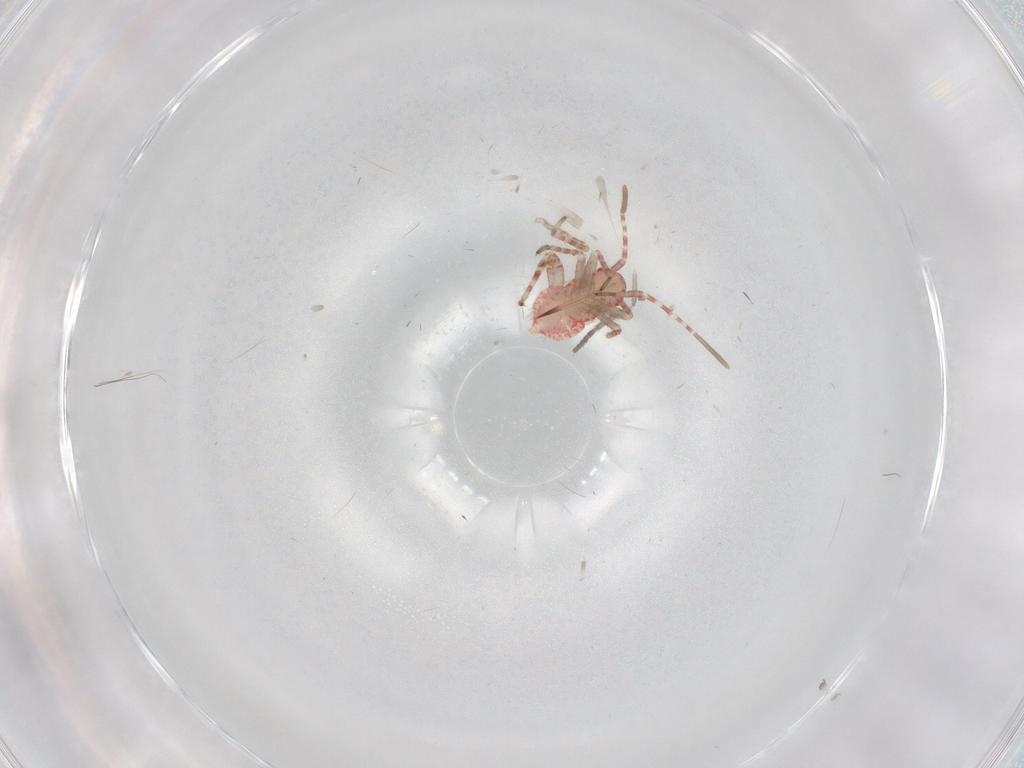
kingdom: Animalia
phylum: Arthropoda
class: Insecta
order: Hemiptera
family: Miridae
